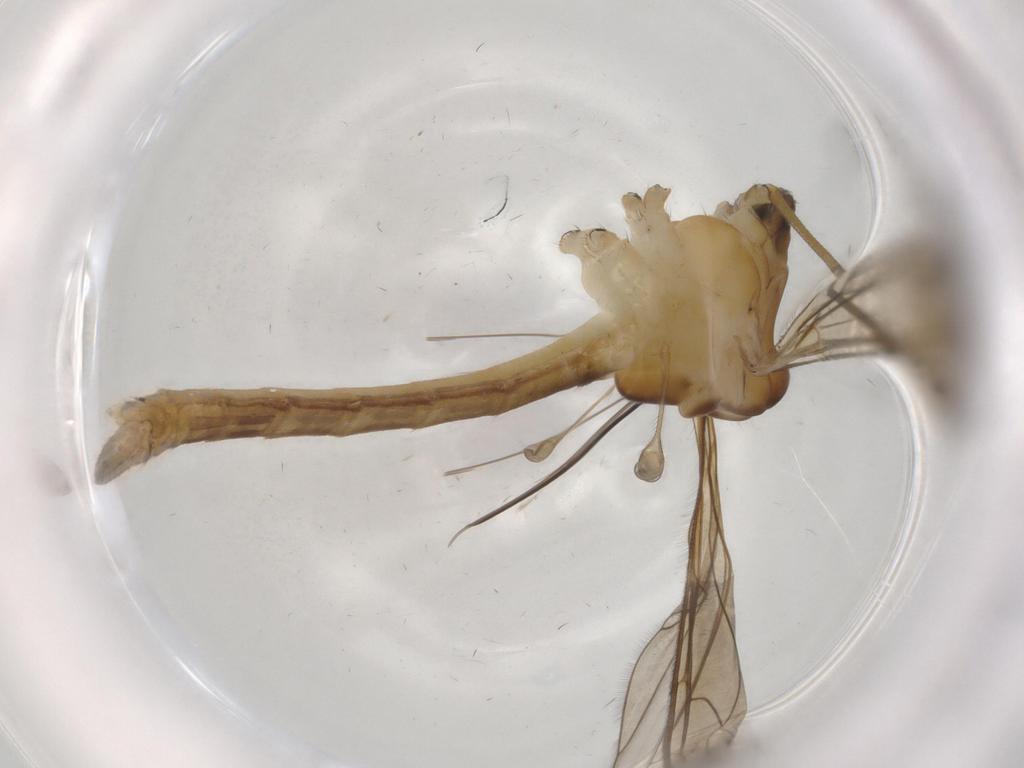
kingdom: Animalia
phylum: Arthropoda
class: Insecta
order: Diptera
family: Cecidomyiidae
